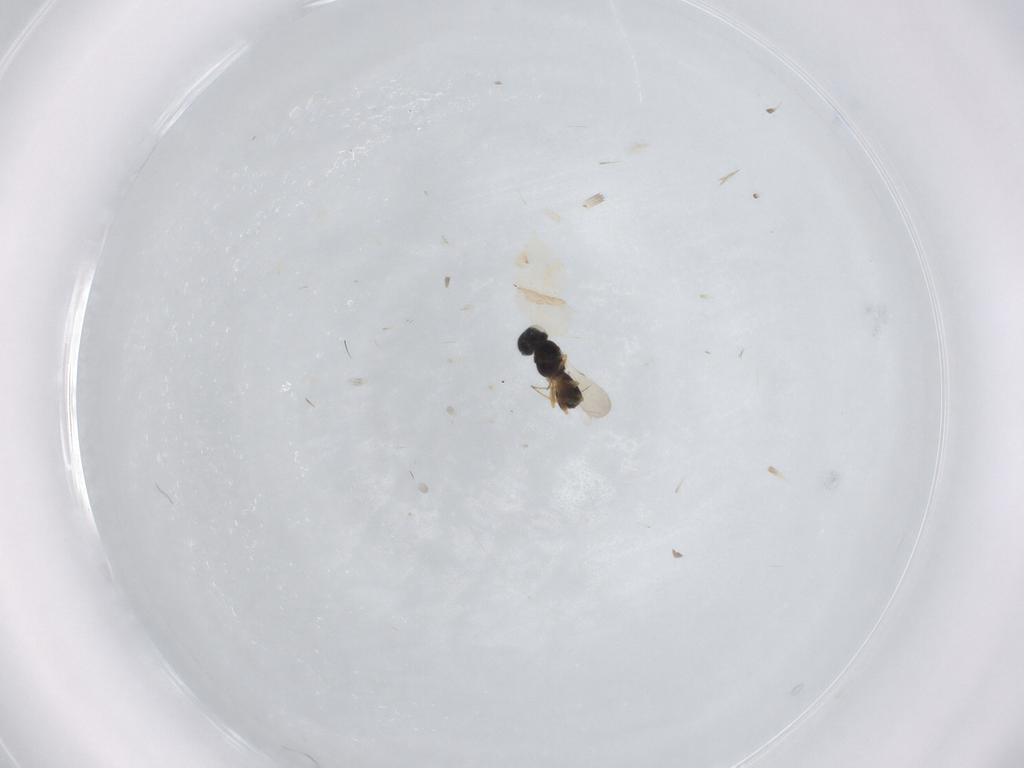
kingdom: Animalia
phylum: Arthropoda
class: Insecta
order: Hymenoptera
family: Scelionidae
